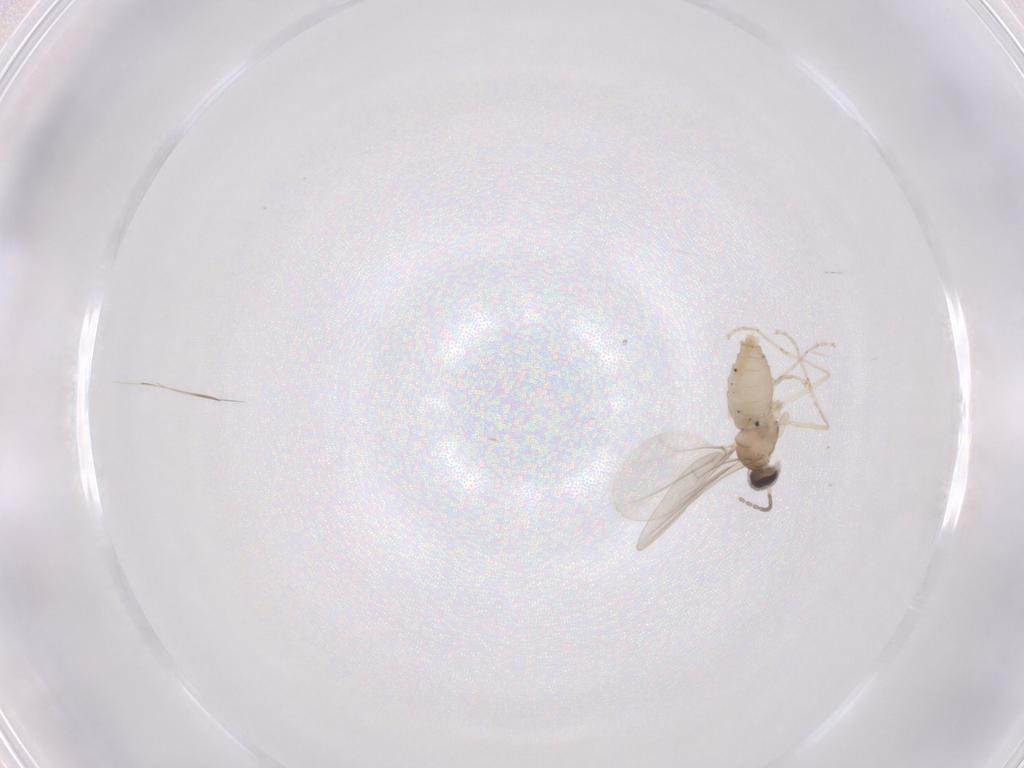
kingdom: Animalia
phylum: Arthropoda
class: Insecta
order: Diptera
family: Cecidomyiidae
